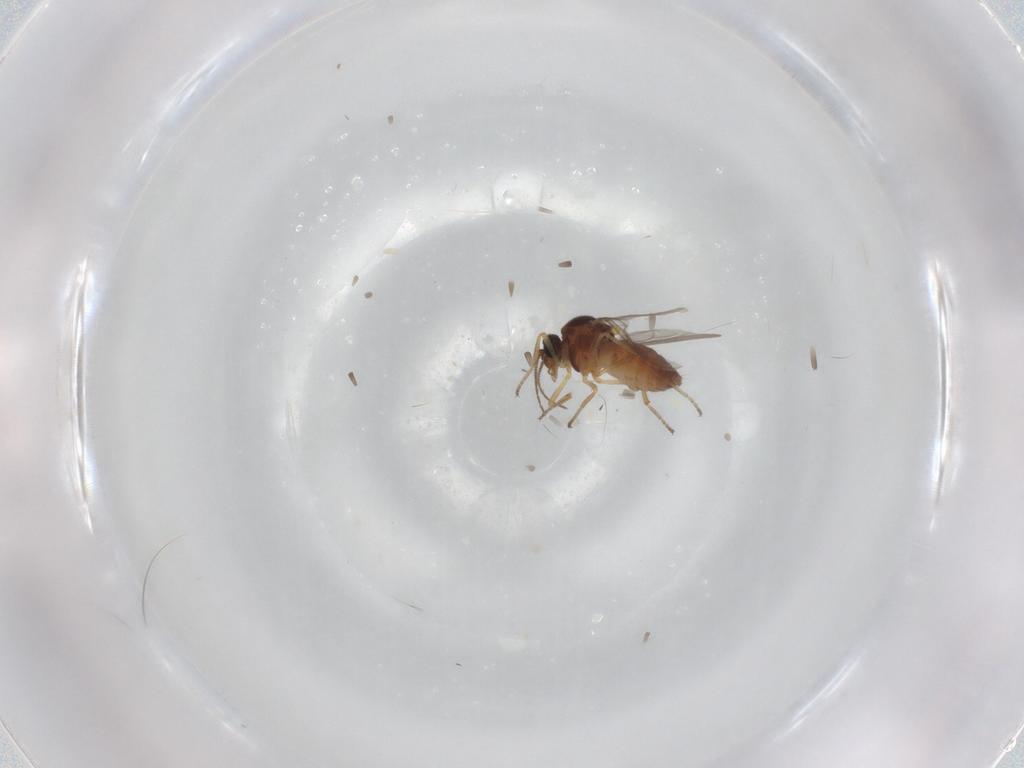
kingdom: Animalia
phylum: Arthropoda
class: Insecta
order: Diptera
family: Ceratopogonidae
